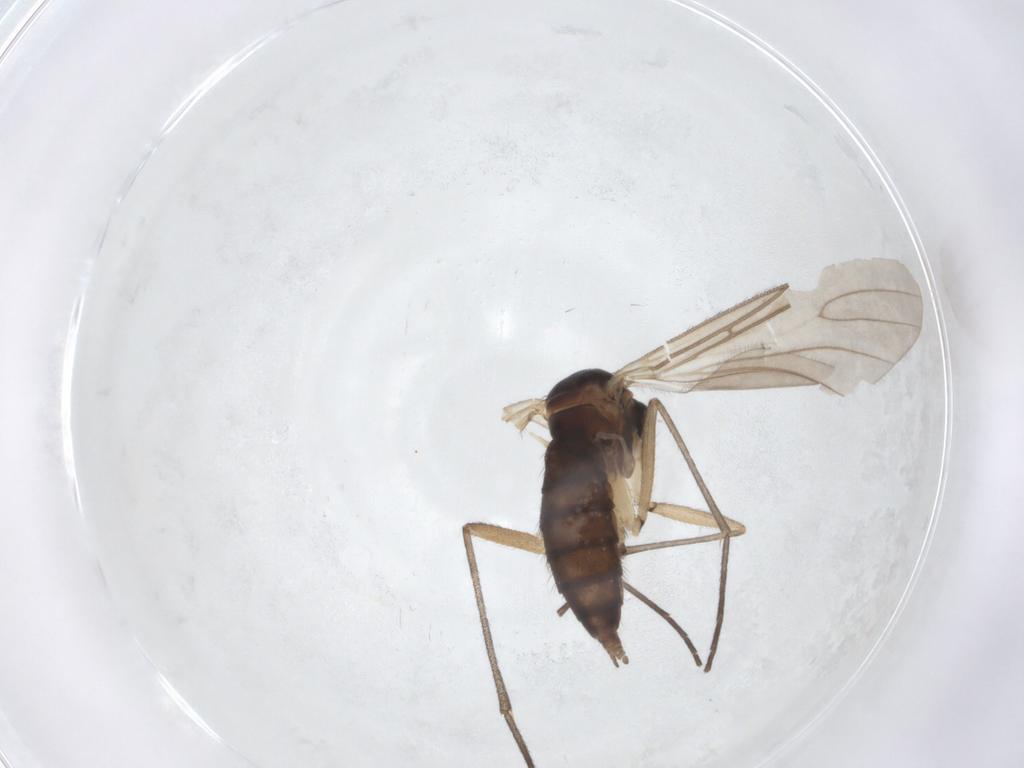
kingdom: Animalia
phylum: Arthropoda
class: Insecta
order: Diptera
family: Sciaridae
